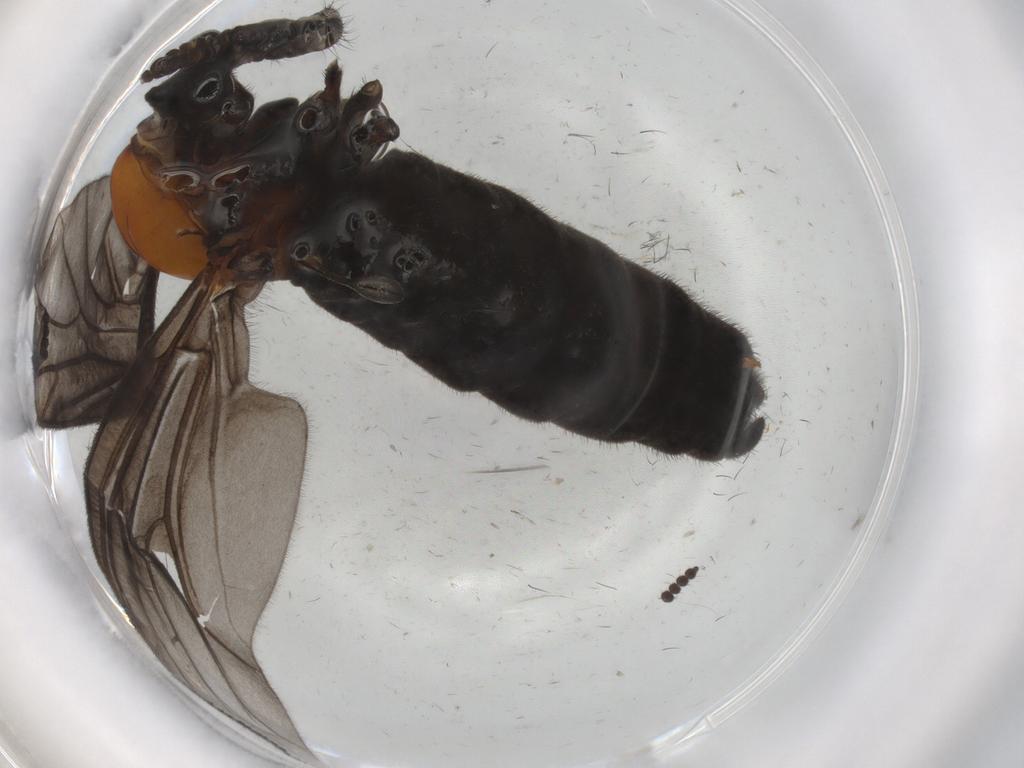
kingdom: Animalia
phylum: Arthropoda
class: Insecta
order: Diptera
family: Bibionidae
